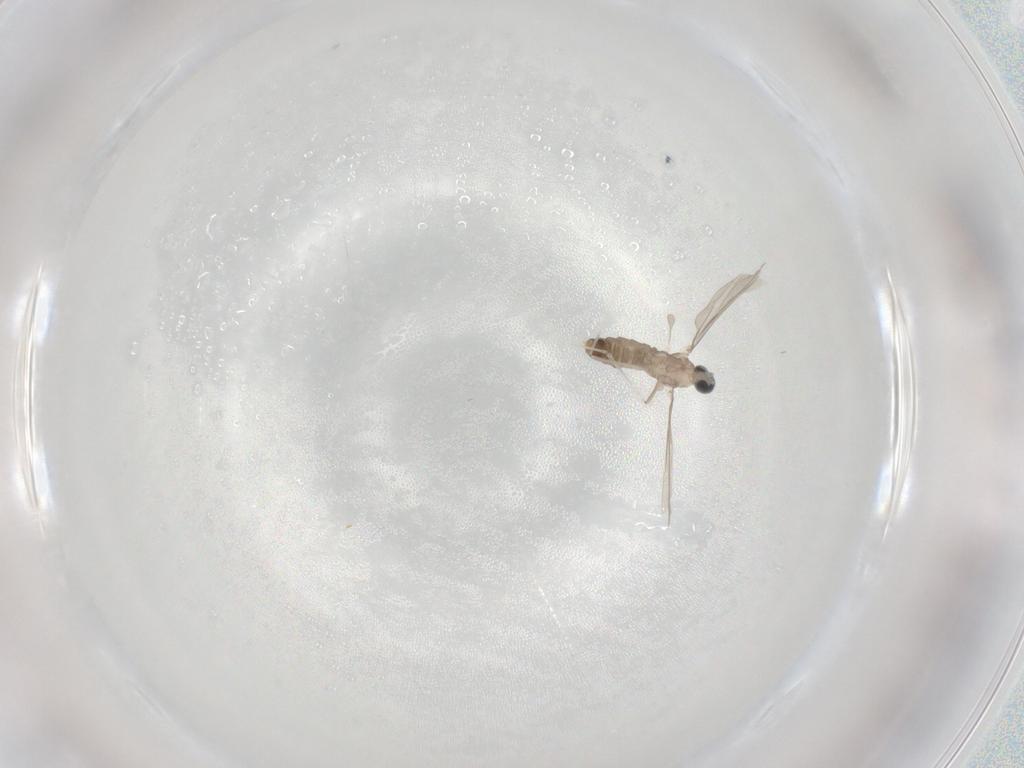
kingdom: Animalia
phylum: Arthropoda
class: Insecta
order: Diptera
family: Cecidomyiidae
